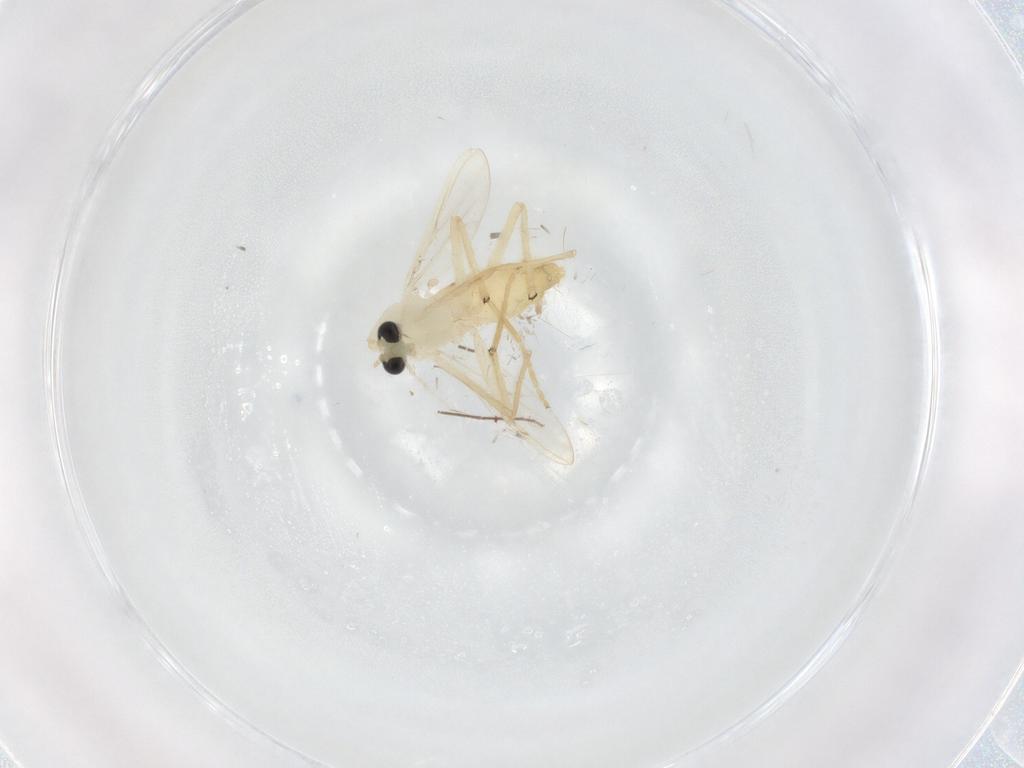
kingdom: Animalia
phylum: Arthropoda
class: Insecta
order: Diptera
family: Chironomidae
